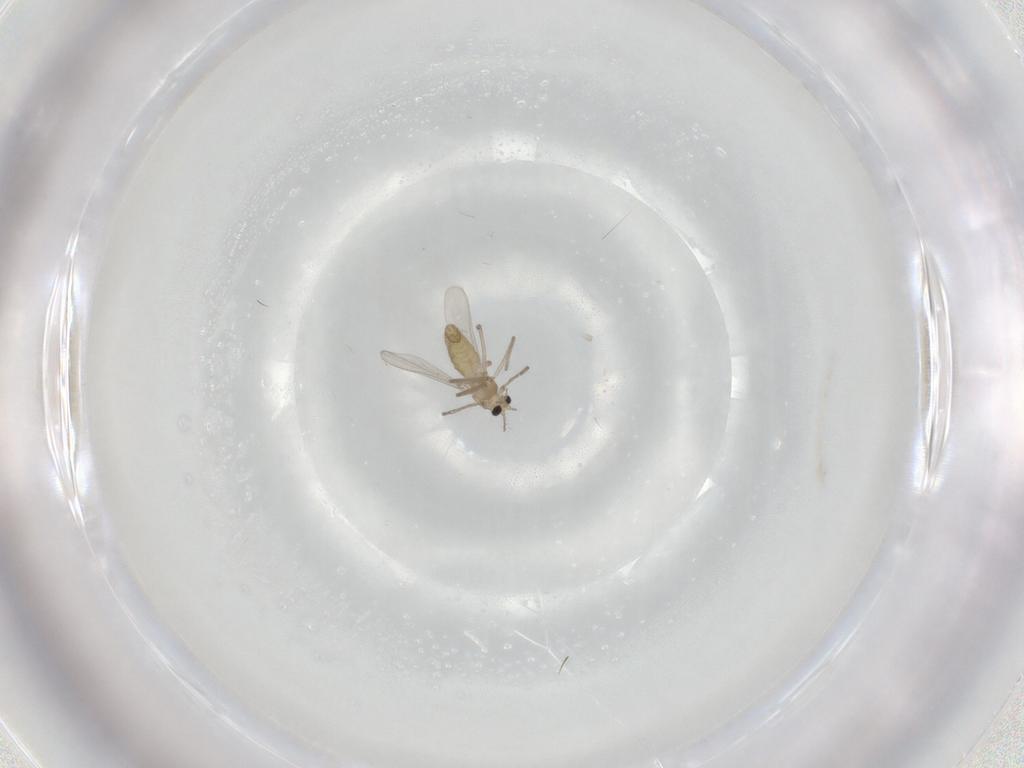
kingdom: Animalia
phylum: Arthropoda
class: Insecta
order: Diptera
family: Chironomidae
